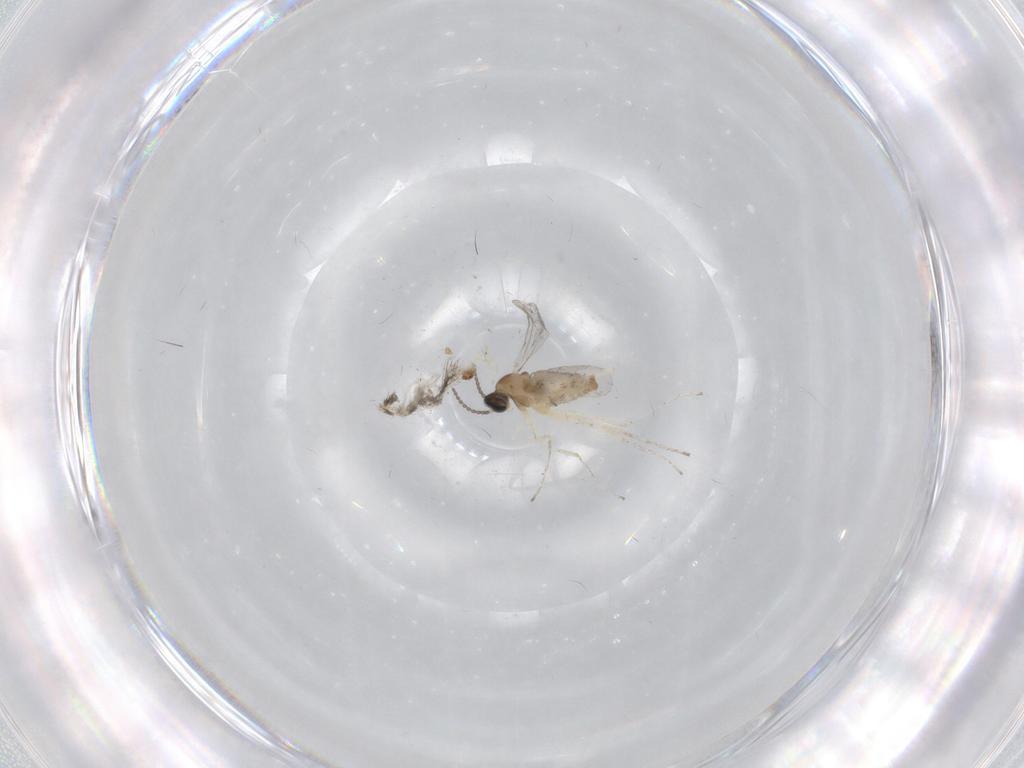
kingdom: Animalia
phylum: Arthropoda
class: Insecta
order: Diptera
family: Cecidomyiidae
